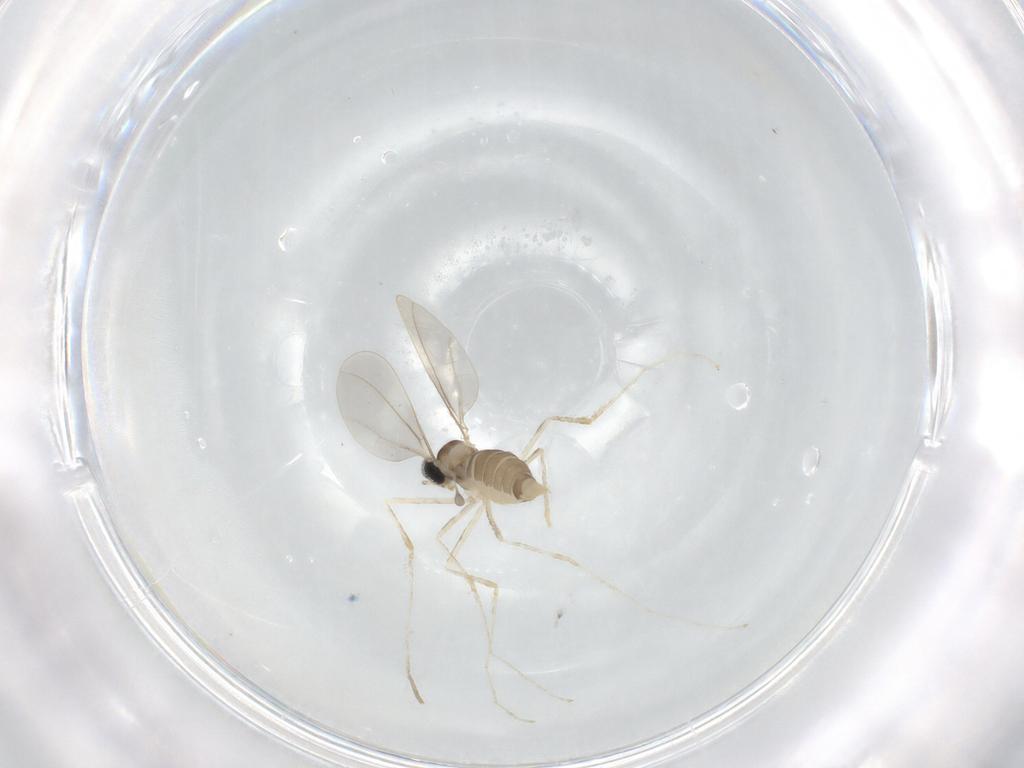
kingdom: Animalia
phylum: Arthropoda
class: Insecta
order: Diptera
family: Cecidomyiidae
